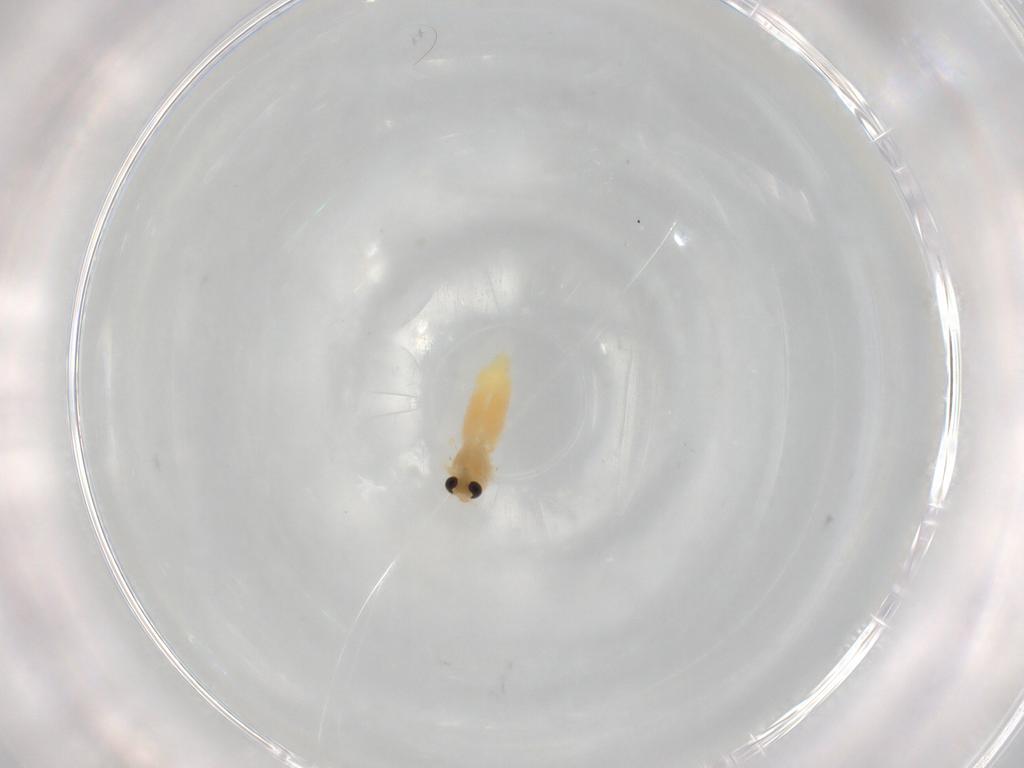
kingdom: Animalia
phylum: Arthropoda
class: Insecta
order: Diptera
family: Chironomidae
